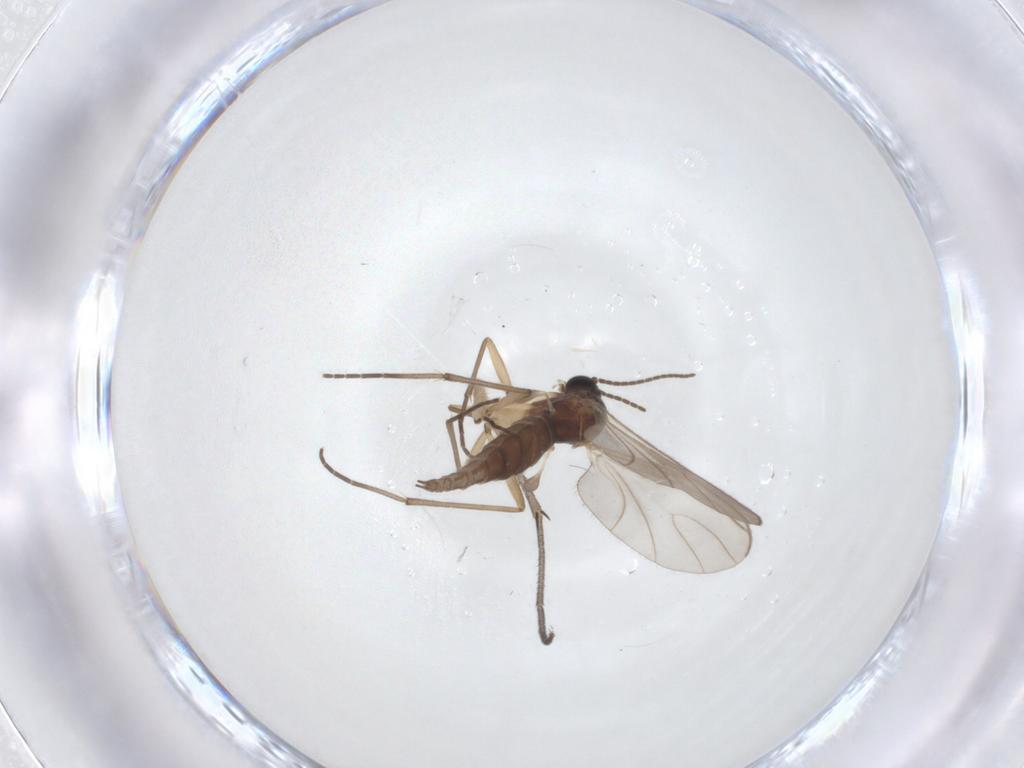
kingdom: Animalia
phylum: Arthropoda
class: Insecta
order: Diptera
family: Sciaridae
